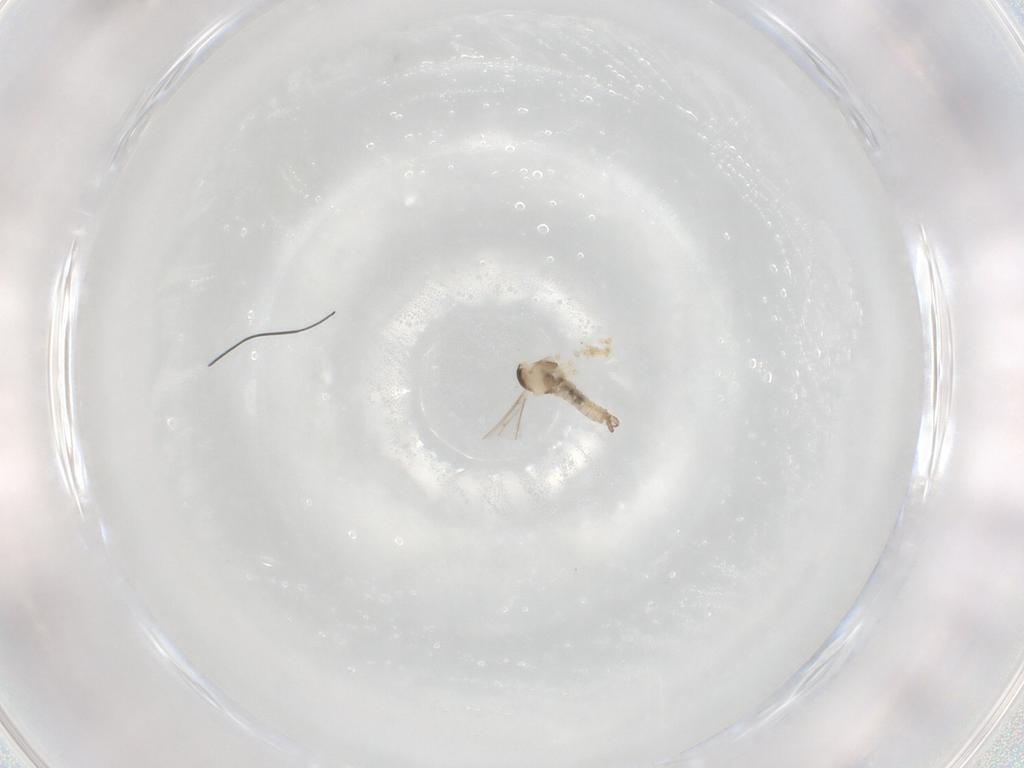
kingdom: Animalia
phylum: Arthropoda
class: Insecta
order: Diptera
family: Cecidomyiidae
